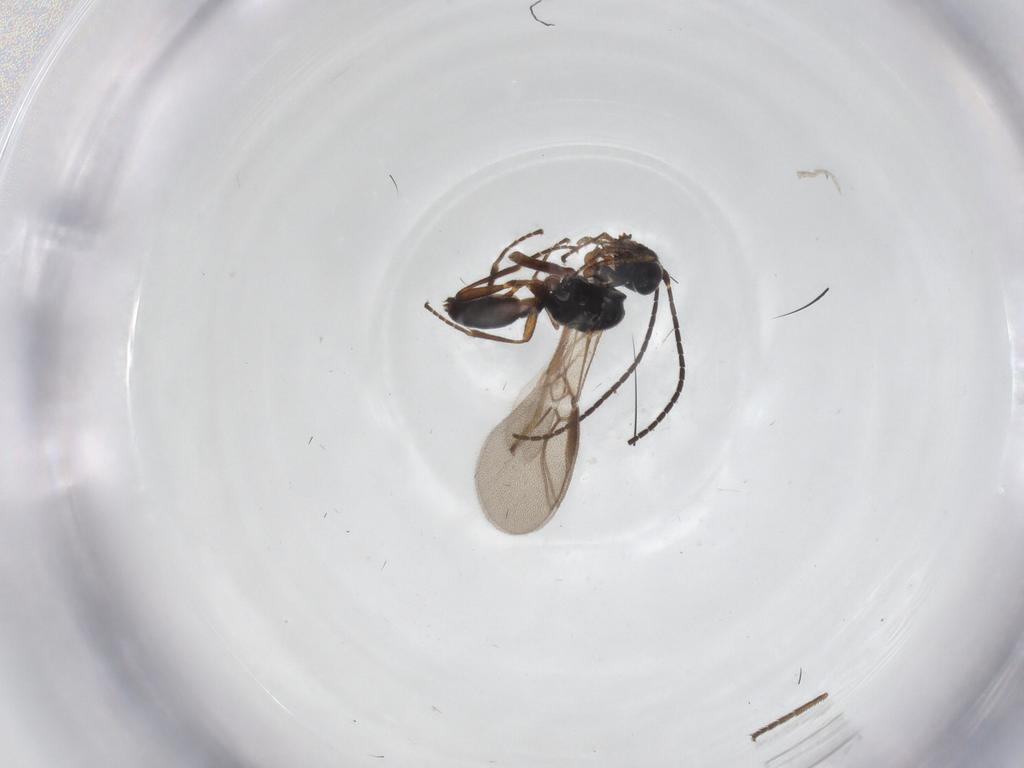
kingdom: Animalia
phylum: Arthropoda
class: Insecta
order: Hymenoptera
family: Braconidae
